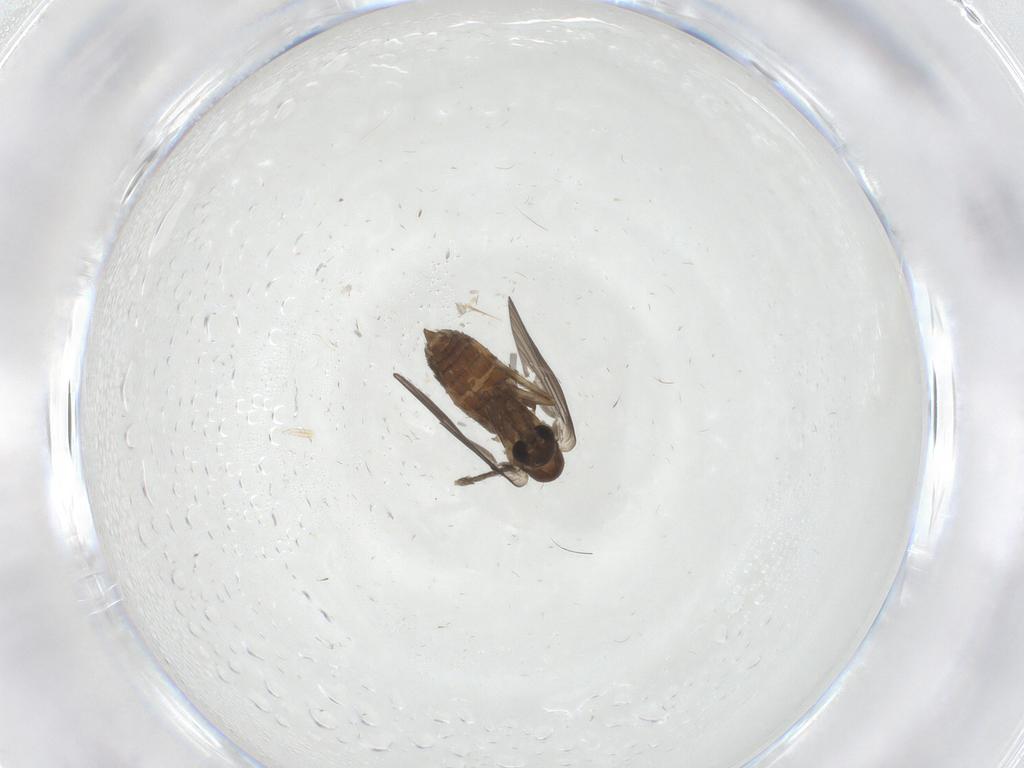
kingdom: Animalia
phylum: Arthropoda
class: Insecta
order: Diptera
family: Psychodidae
